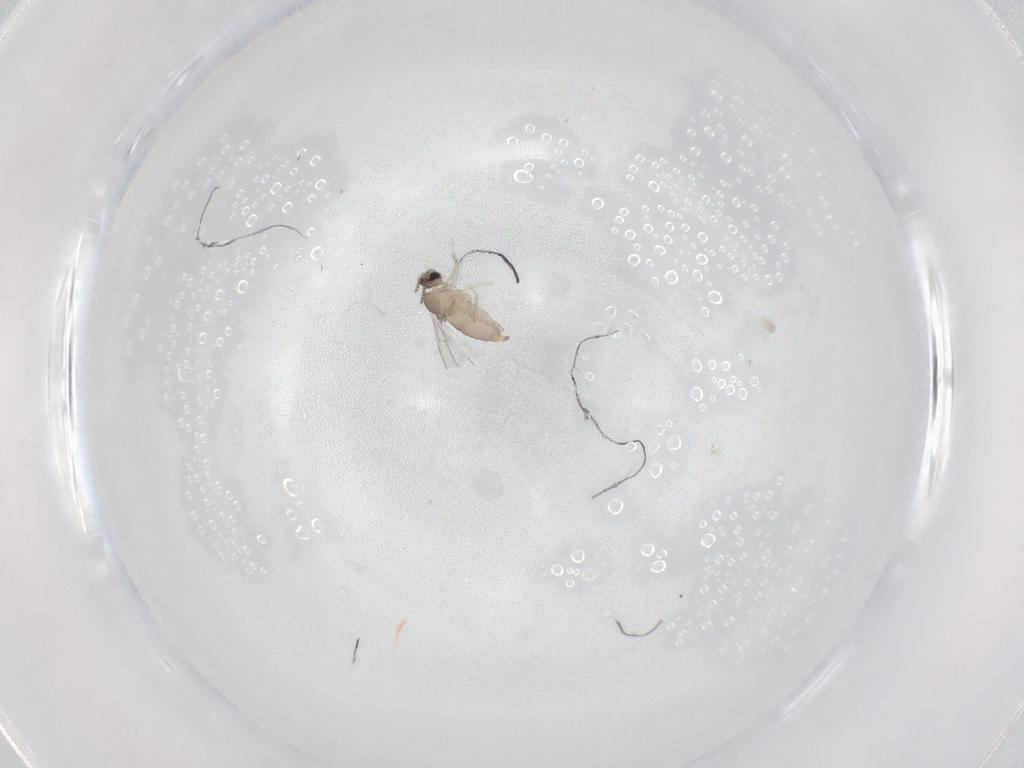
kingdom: Animalia
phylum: Arthropoda
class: Insecta
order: Diptera
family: Cecidomyiidae
